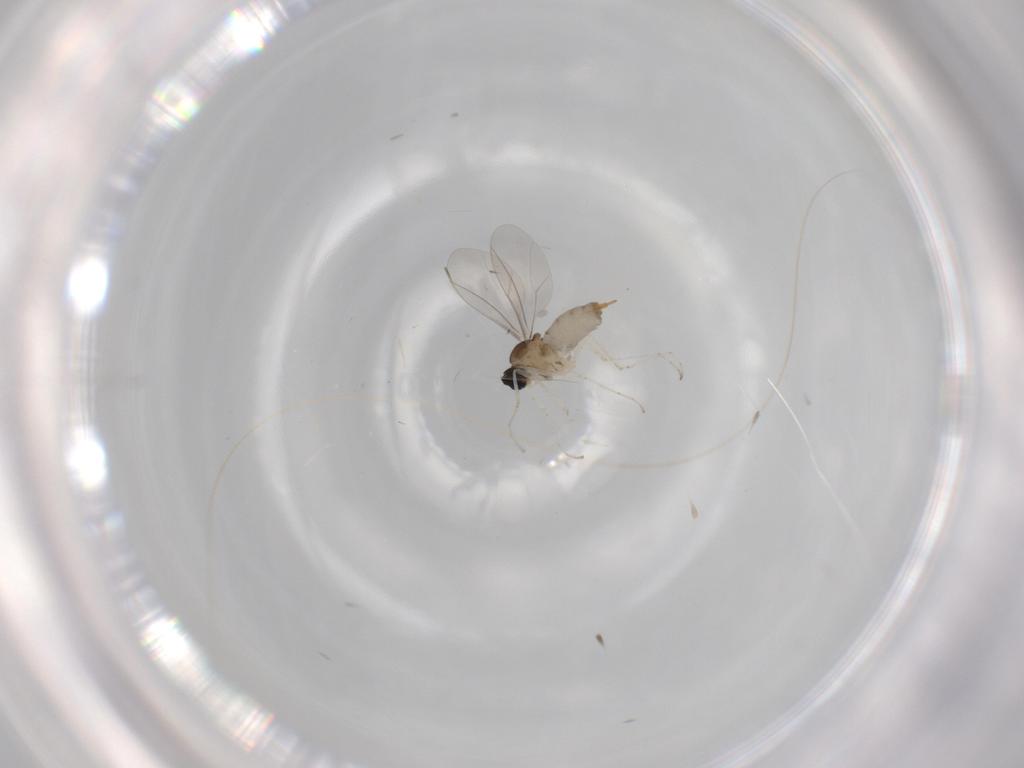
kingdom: Animalia
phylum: Arthropoda
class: Insecta
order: Diptera
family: Cecidomyiidae
